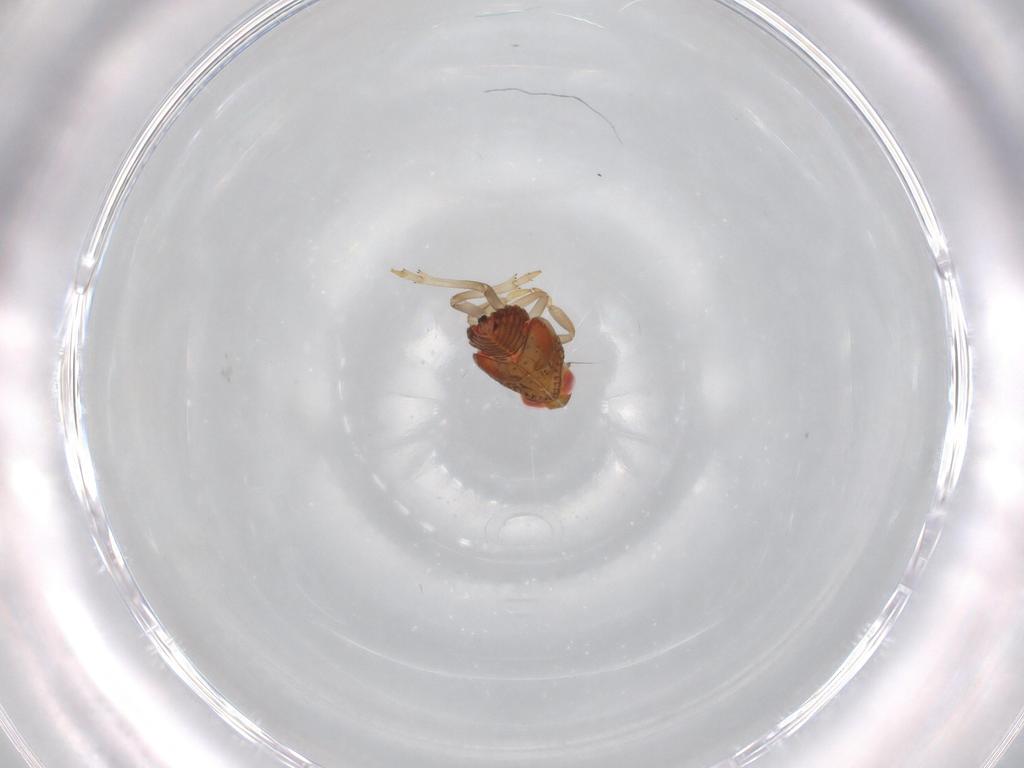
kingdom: Animalia
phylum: Arthropoda
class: Insecta
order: Hemiptera
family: Issidae
